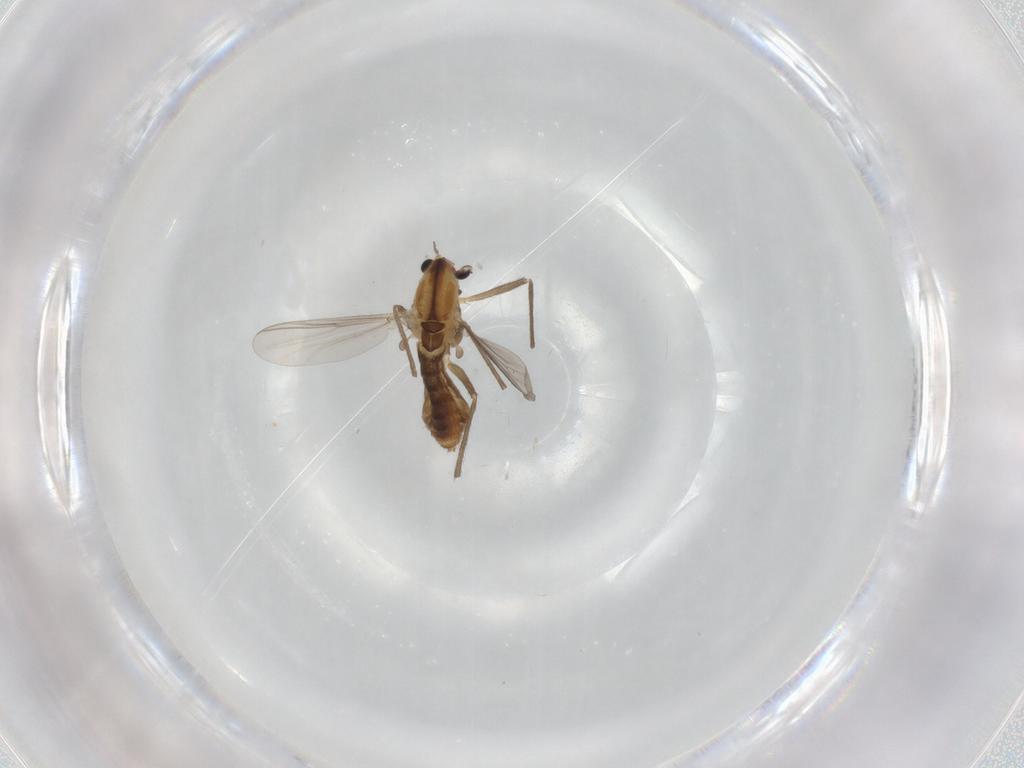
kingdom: Animalia
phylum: Arthropoda
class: Insecta
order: Diptera
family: Chironomidae
